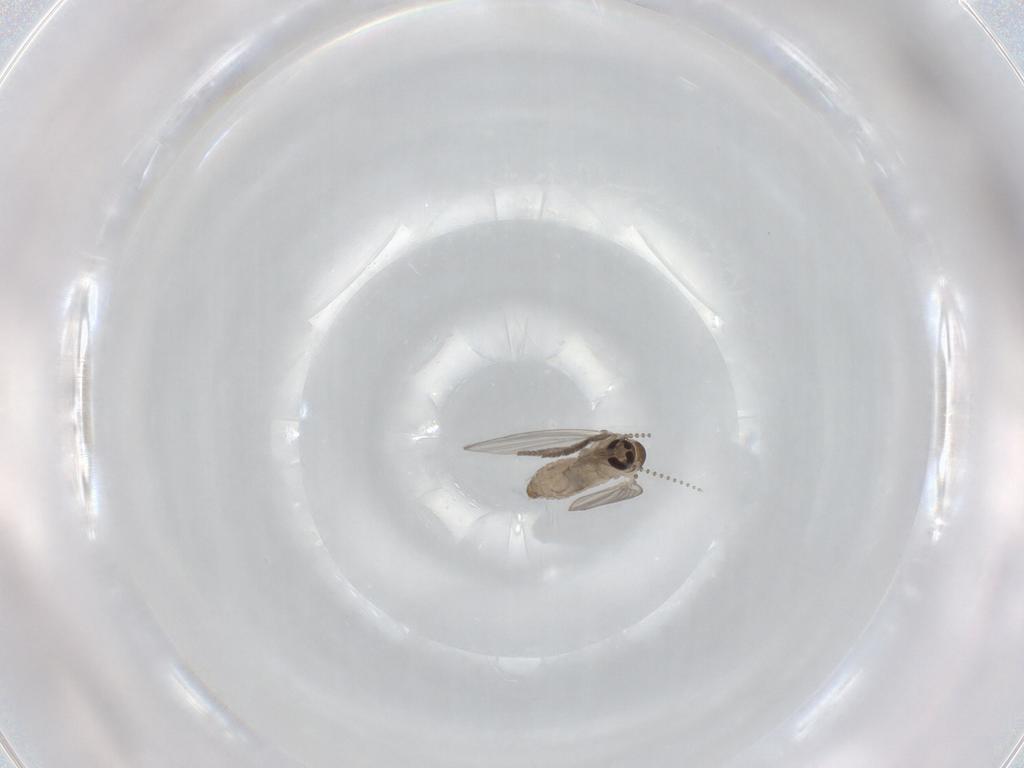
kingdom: Animalia
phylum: Arthropoda
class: Insecta
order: Diptera
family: Psychodidae
